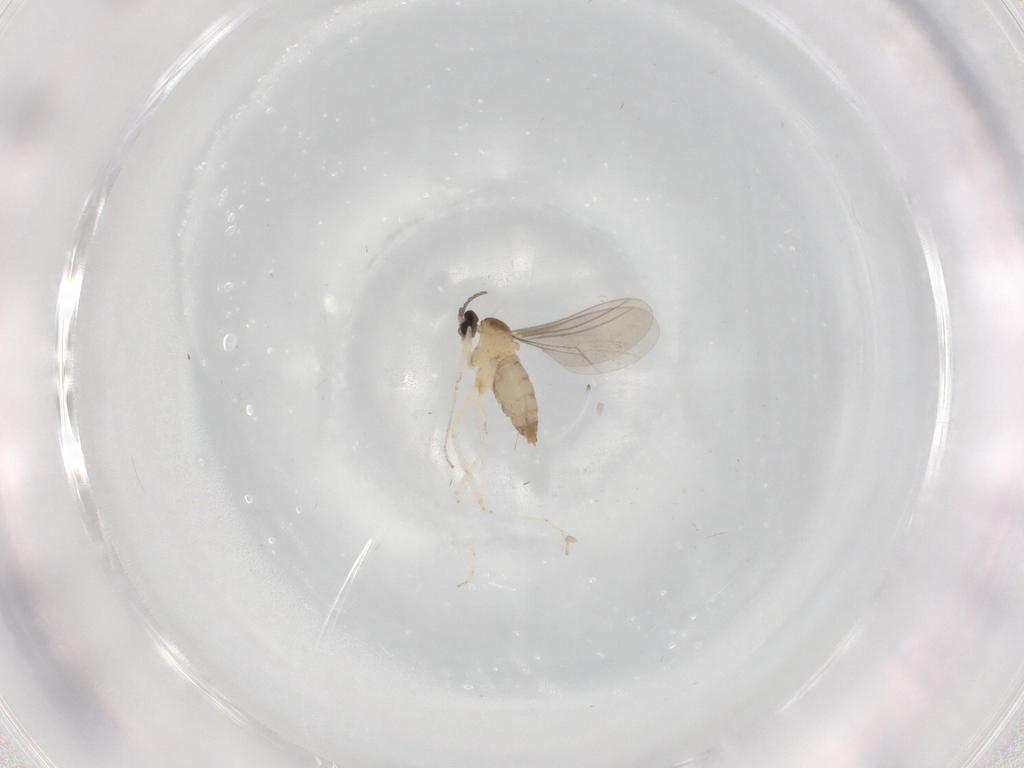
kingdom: Animalia
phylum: Arthropoda
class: Insecta
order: Diptera
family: Cecidomyiidae
